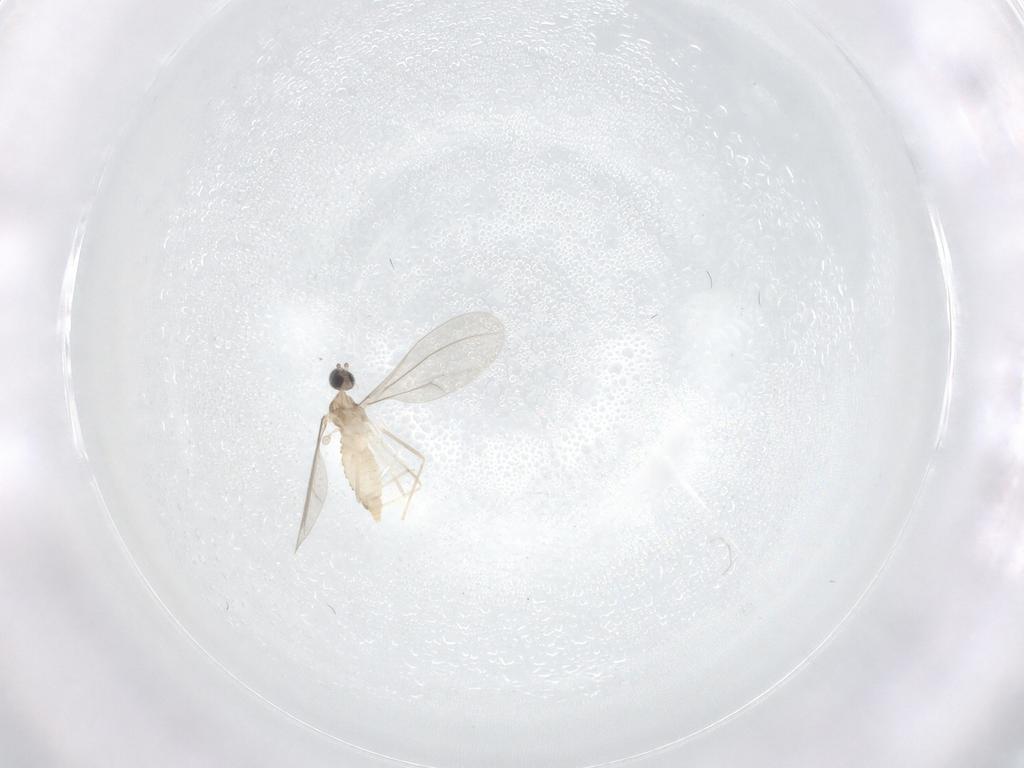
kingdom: Animalia
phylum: Arthropoda
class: Insecta
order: Diptera
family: Cecidomyiidae
